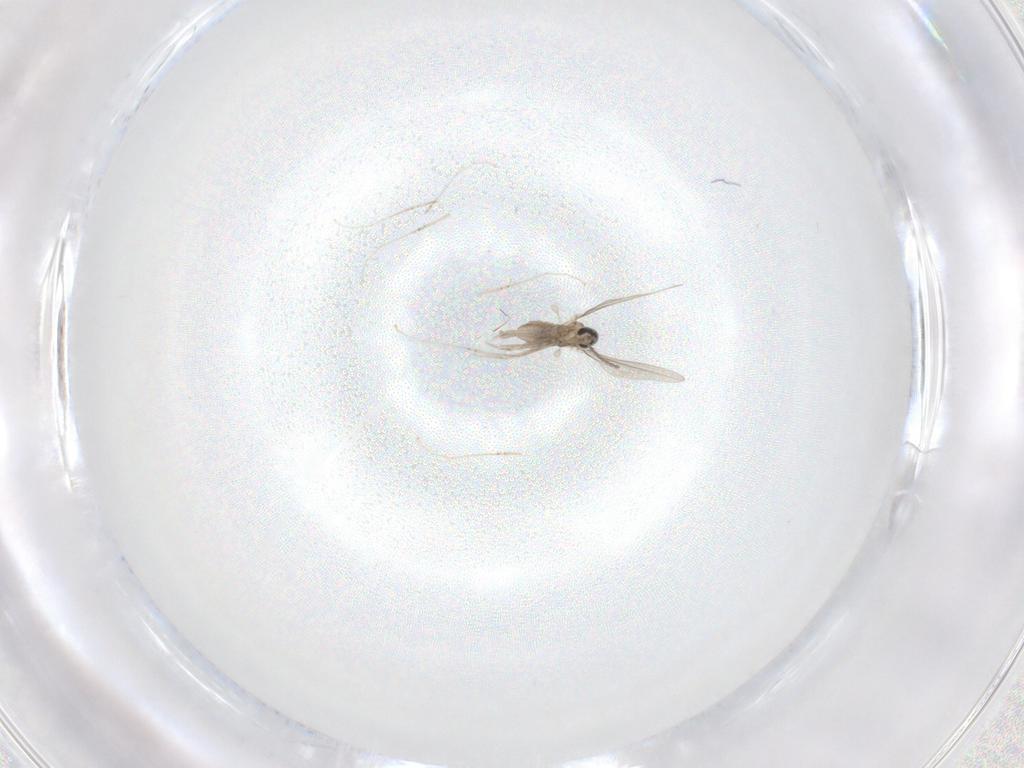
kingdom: Animalia
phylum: Arthropoda
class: Insecta
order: Diptera
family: Cecidomyiidae
